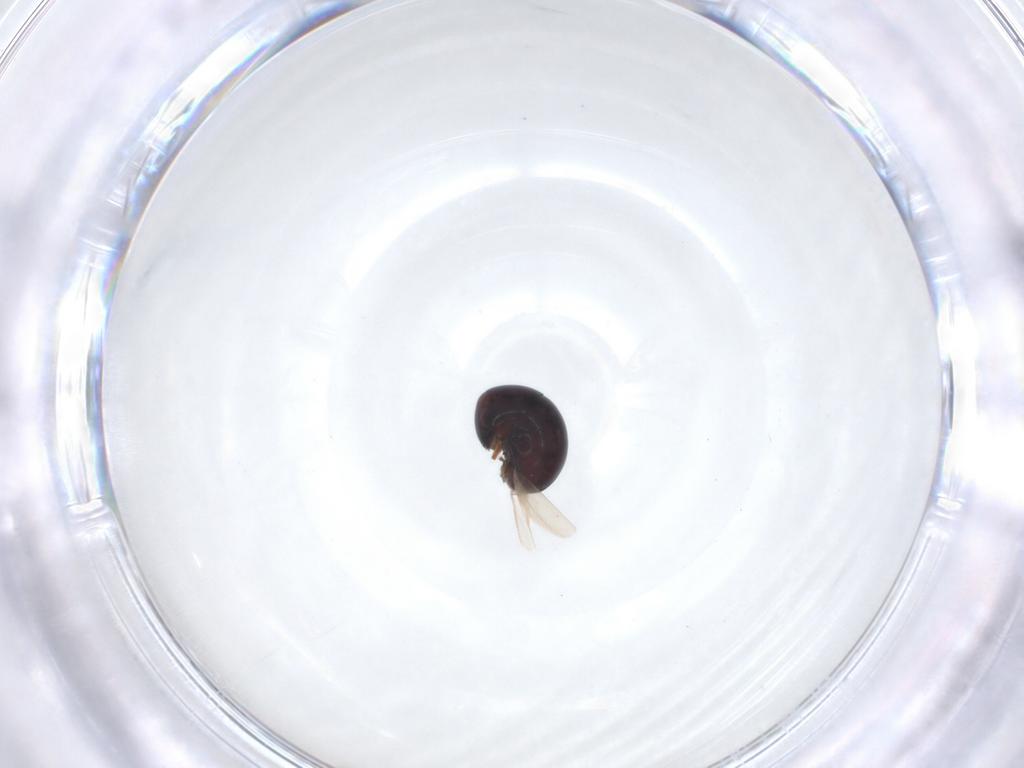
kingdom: Animalia
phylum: Arthropoda
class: Insecta
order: Coleoptera
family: Cybocephalidae
